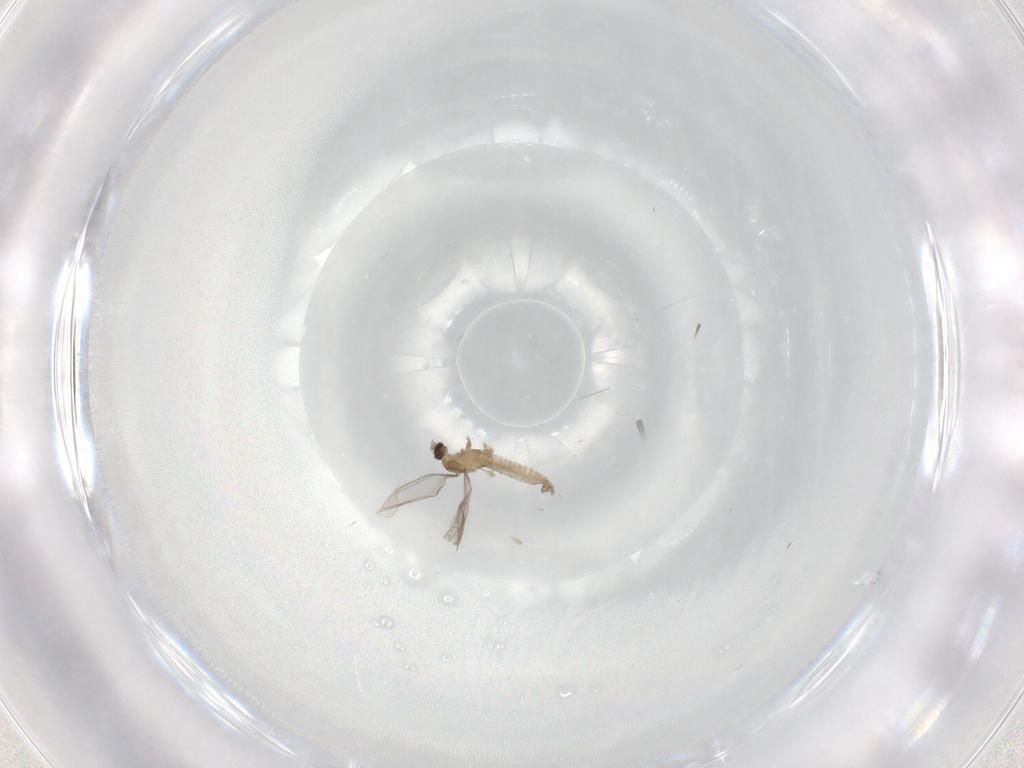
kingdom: Animalia
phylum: Arthropoda
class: Insecta
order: Diptera
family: Cecidomyiidae
